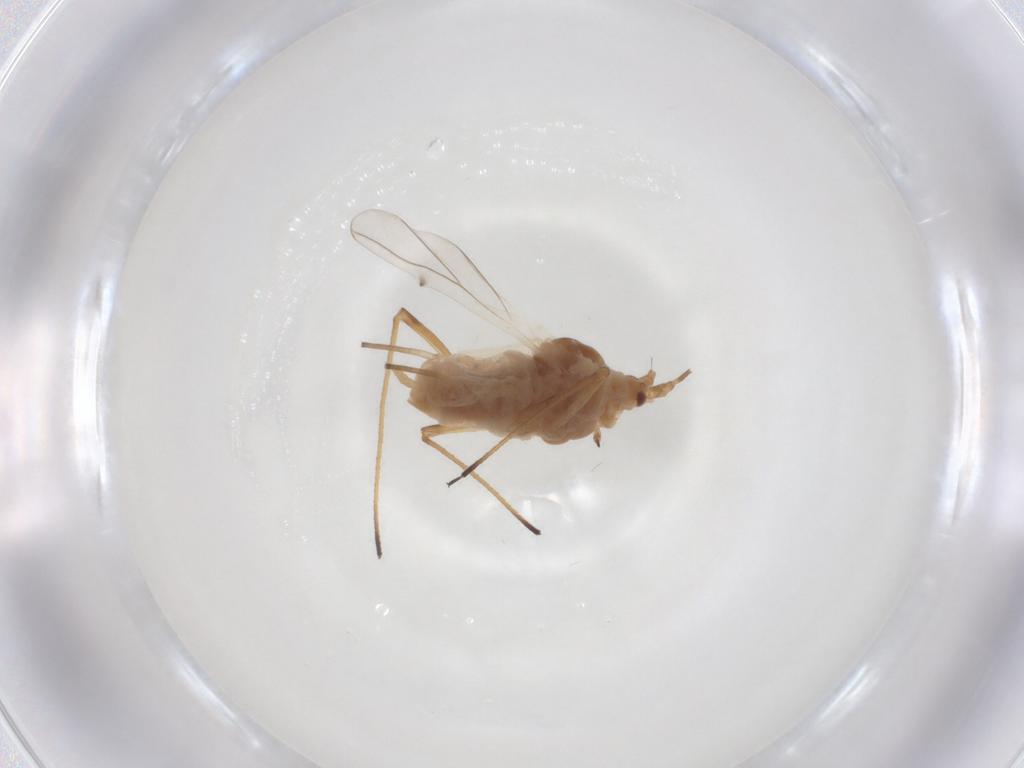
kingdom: Animalia
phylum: Arthropoda
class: Insecta
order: Hemiptera
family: Aphididae
